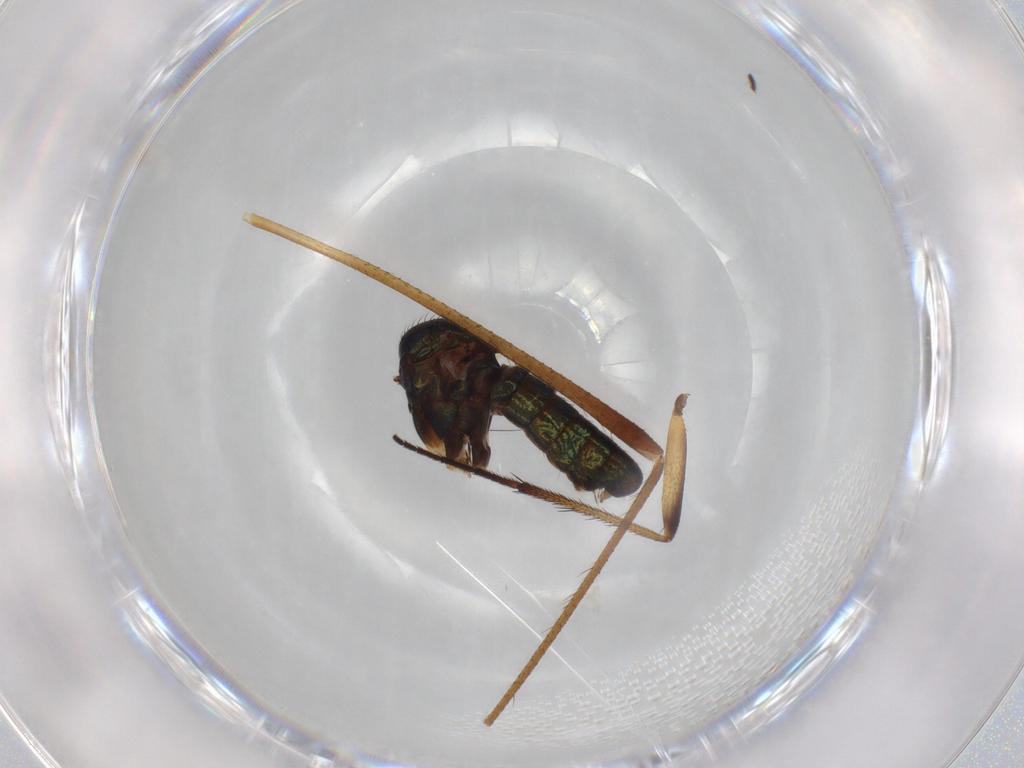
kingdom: Animalia
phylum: Arthropoda
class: Insecta
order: Diptera
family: Dolichopodidae
